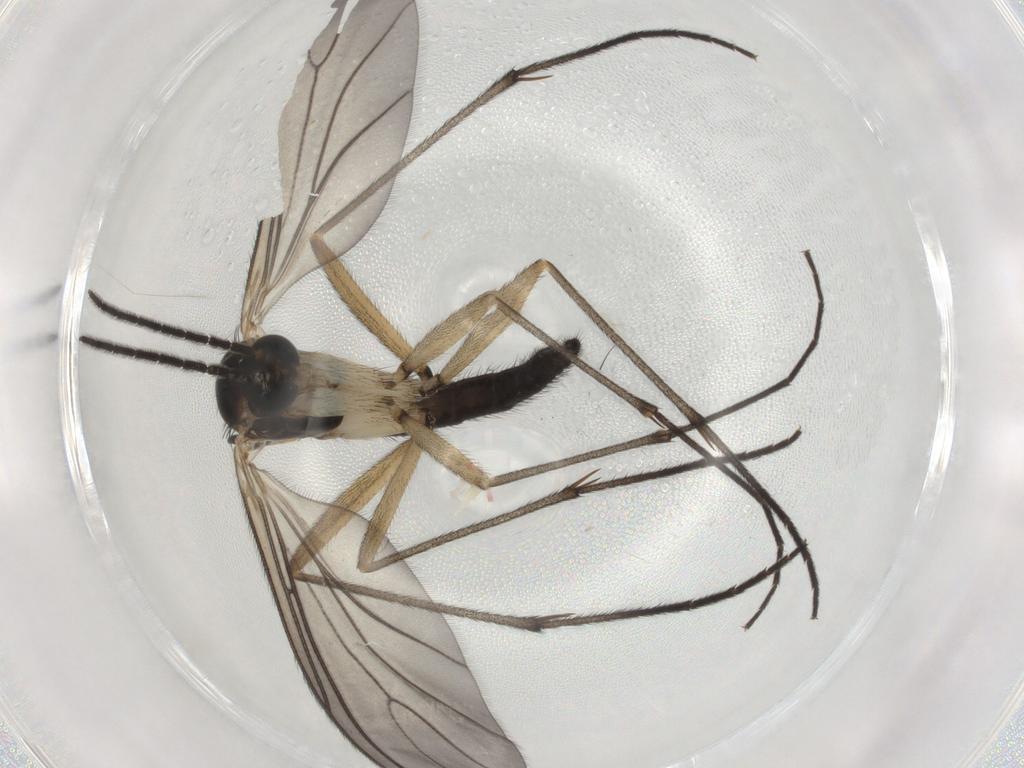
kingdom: Animalia
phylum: Arthropoda
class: Insecta
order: Diptera
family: Sciaridae
